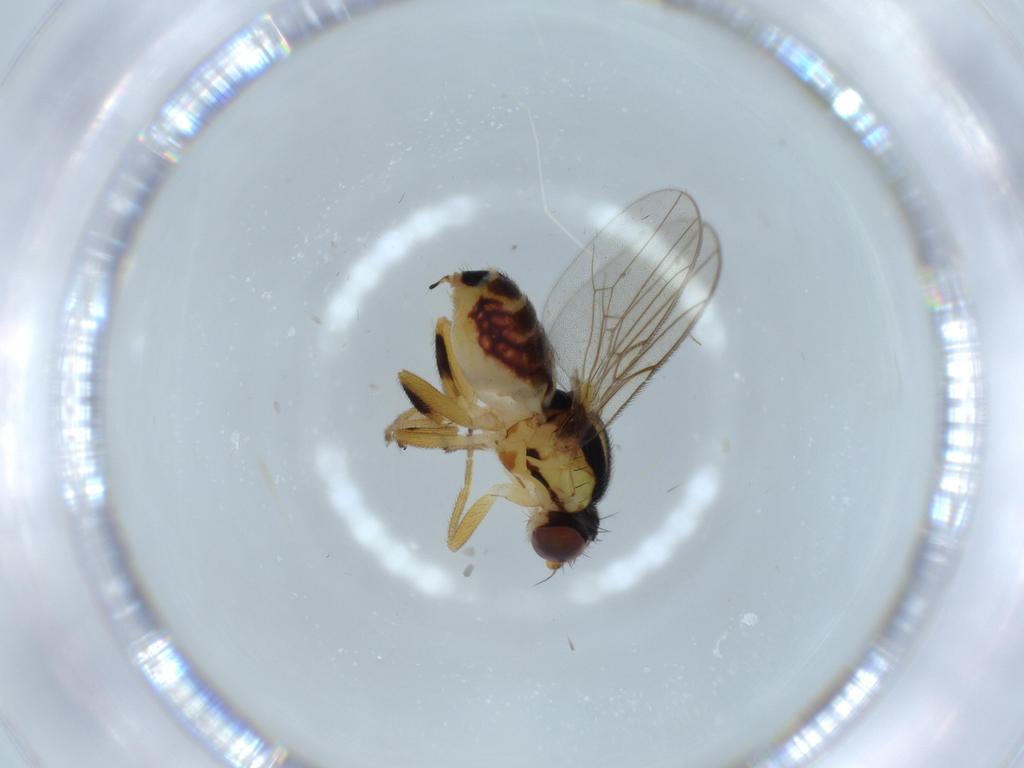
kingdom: Animalia
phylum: Arthropoda
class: Insecta
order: Diptera
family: Chloropidae
